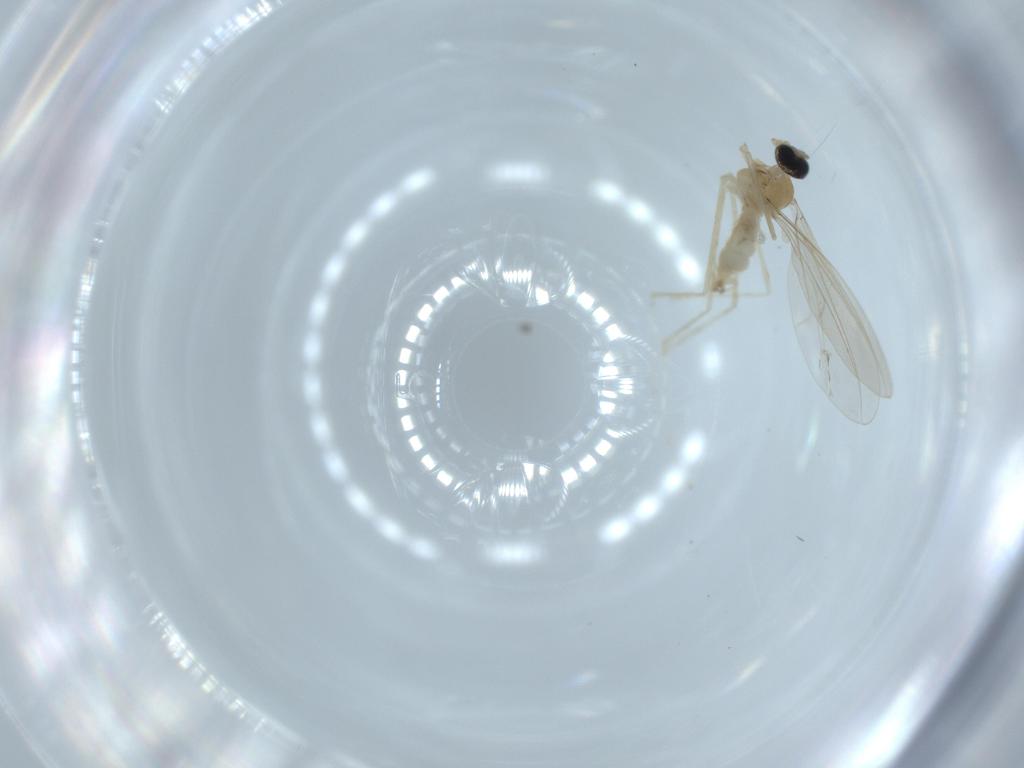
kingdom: Animalia
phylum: Arthropoda
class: Insecta
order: Diptera
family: Cecidomyiidae
